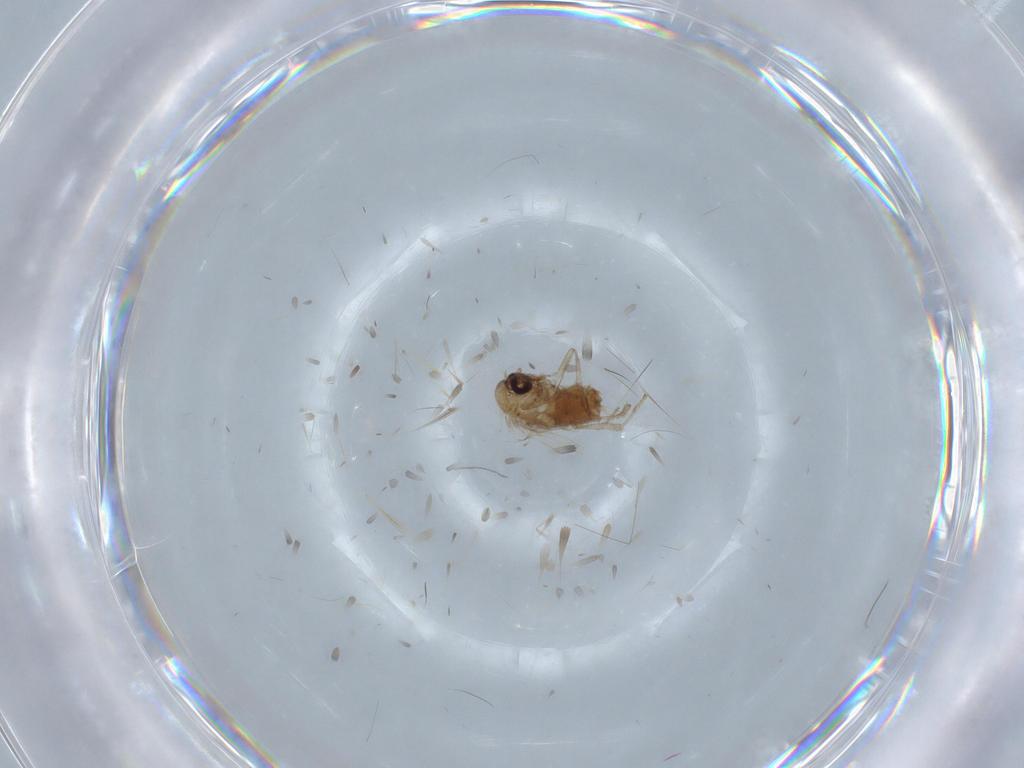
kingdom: Animalia
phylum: Arthropoda
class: Insecta
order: Diptera
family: Psychodidae
